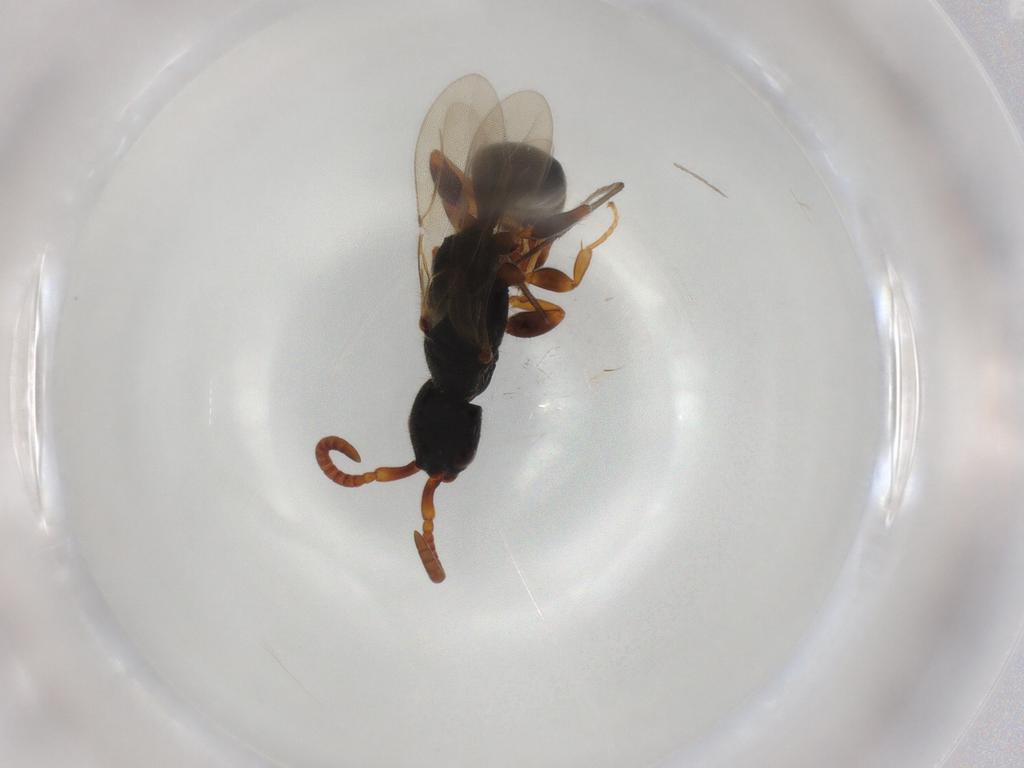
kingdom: Animalia
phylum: Arthropoda
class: Insecta
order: Hymenoptera
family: Bethylidae
